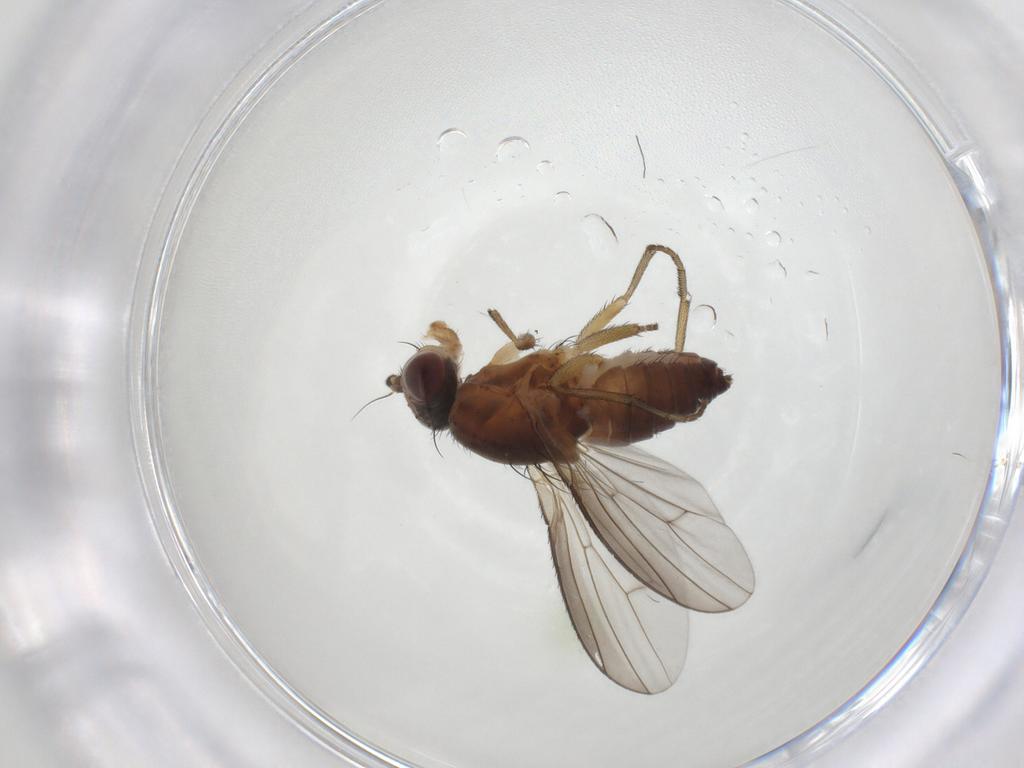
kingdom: Animalia
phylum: Arthropoda
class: Insecta
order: Diptera
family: Heleomyzidae
